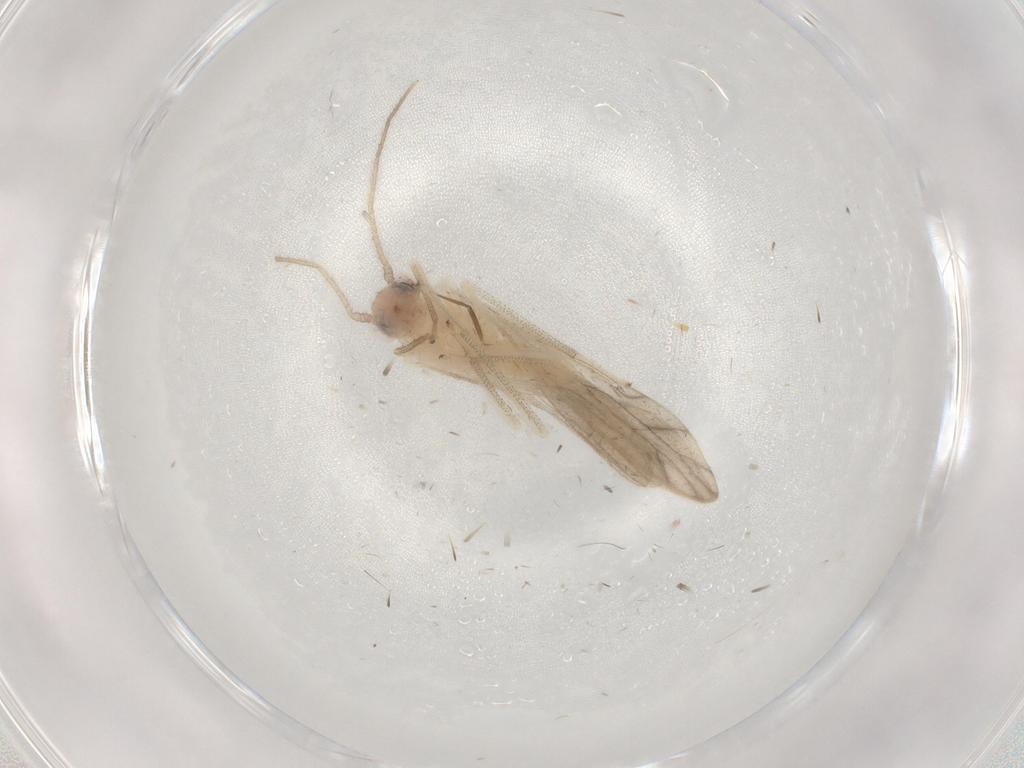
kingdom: Animalia
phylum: Arthropoda
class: Insecta
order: Psocodea
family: Caeciliusidae
